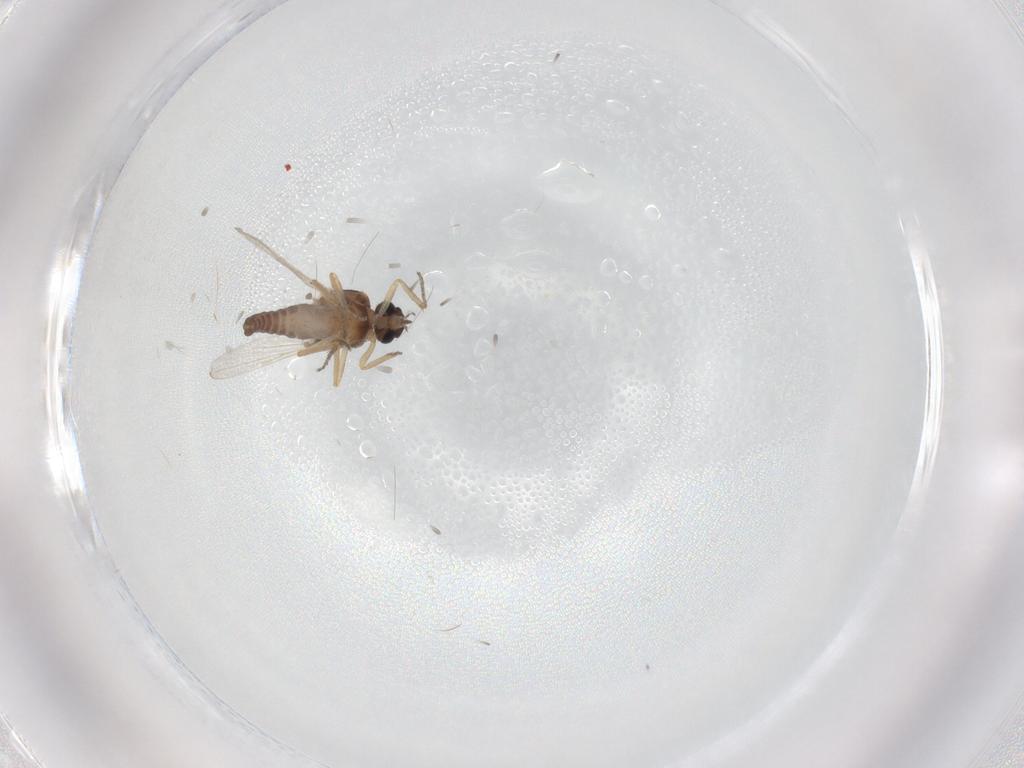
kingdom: Animalia
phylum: Arthropoda
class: Insecta
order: Diptera
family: Ceratopogonidae
